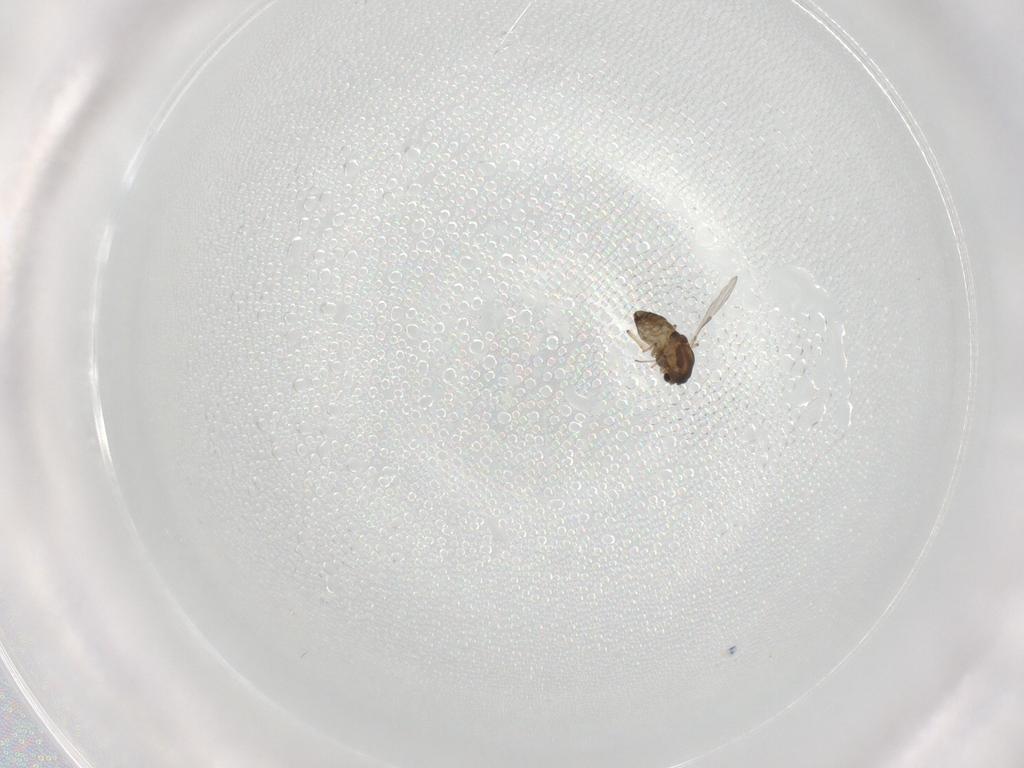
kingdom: Animalia
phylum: Arthropoda
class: Insecta
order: Diptera
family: Chironomidae
